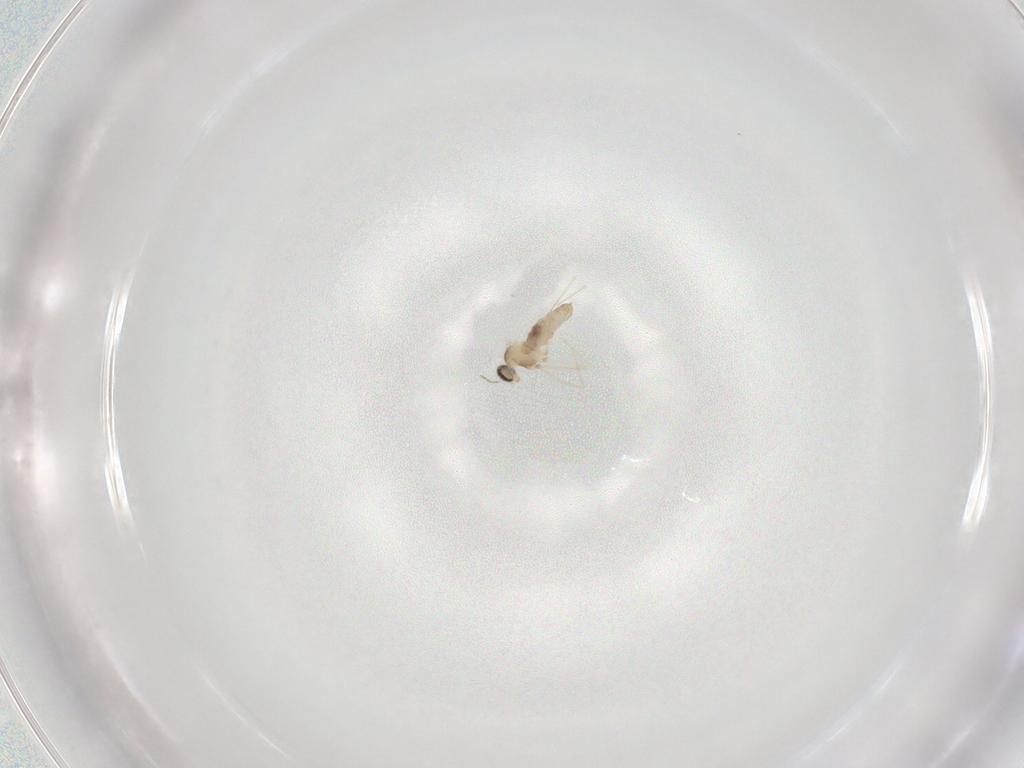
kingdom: Animalia
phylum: Arthropoda
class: Insecta
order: Diptera
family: Cecidomyiidae
